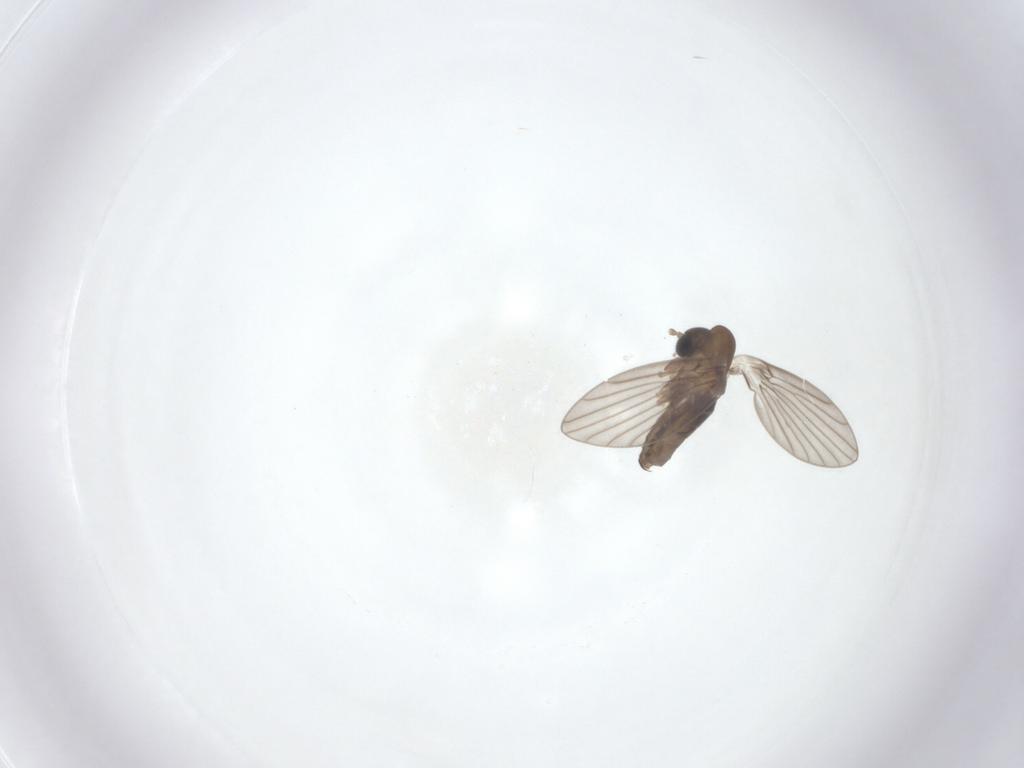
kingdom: Animalia
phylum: Arthropoda
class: Insecta
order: Diptera
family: Psychodidae
